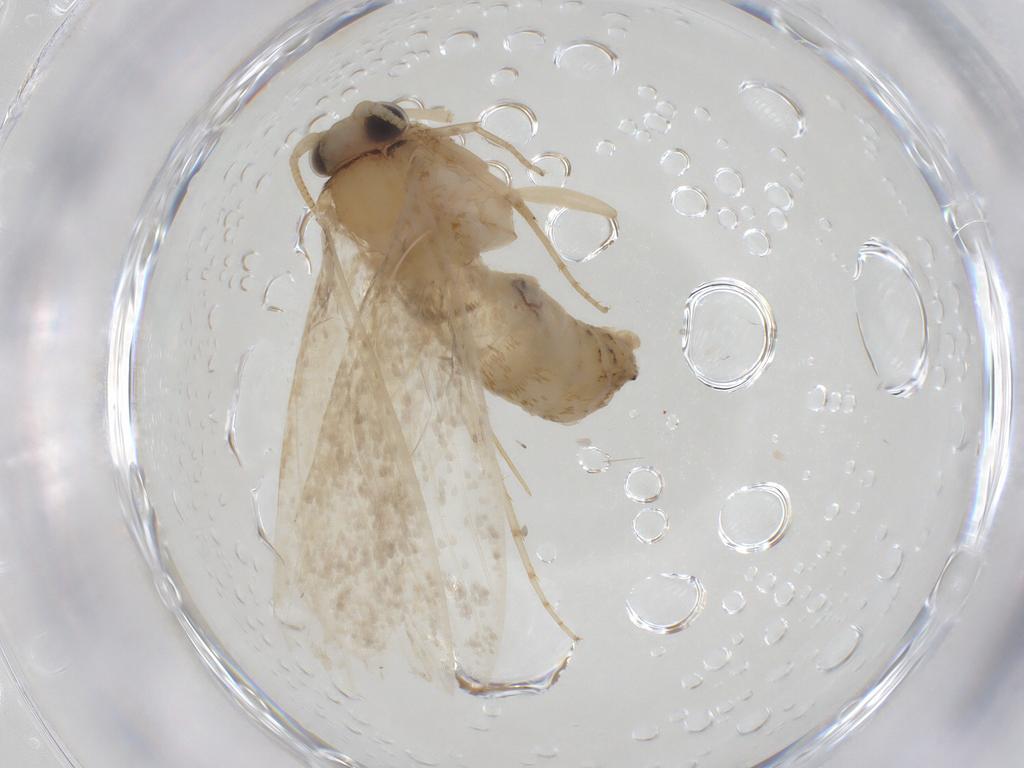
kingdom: Animalia
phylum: Arthropoda
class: Insecta
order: Lepidoptera
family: Tineidae
